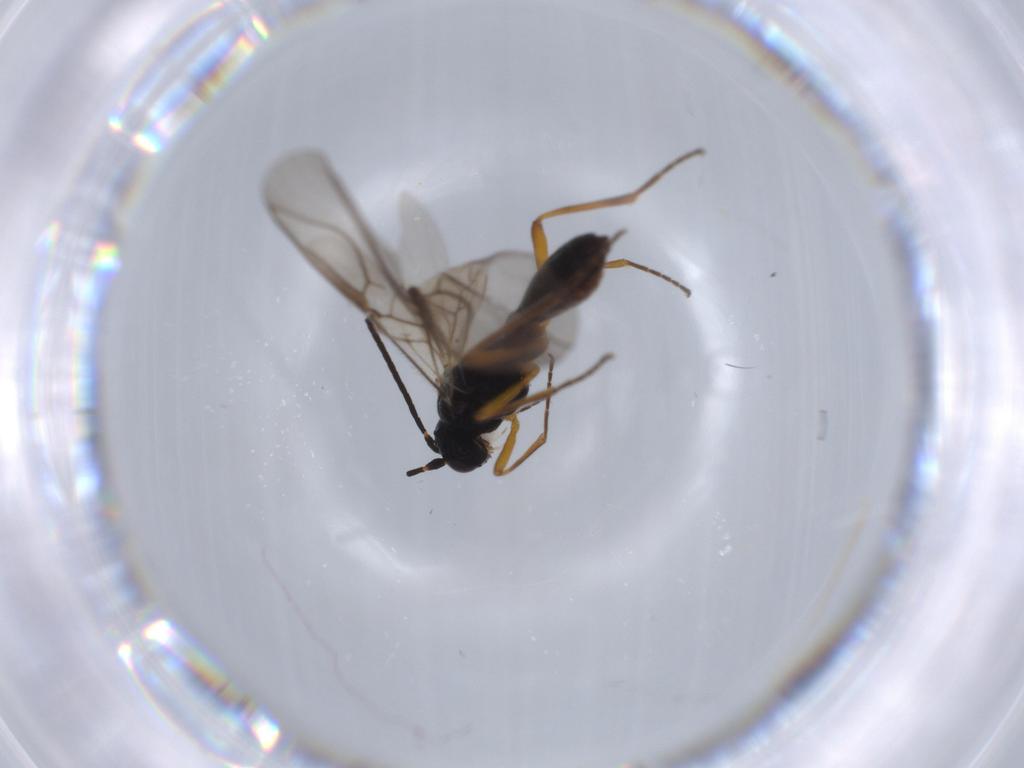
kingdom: Animalia
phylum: Arthropoda
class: Insecta
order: Hymenoptera
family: Braconidae
